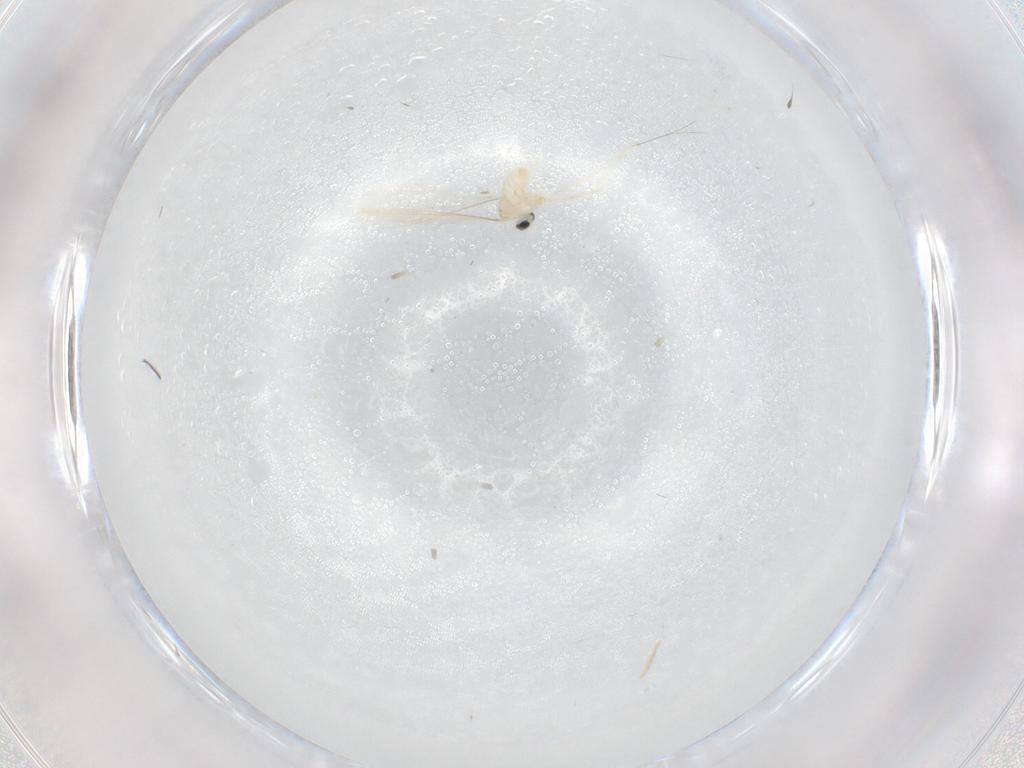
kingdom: Animalia
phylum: Arthropoda
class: Insecta
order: Diptera
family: Cecidomyiidae
